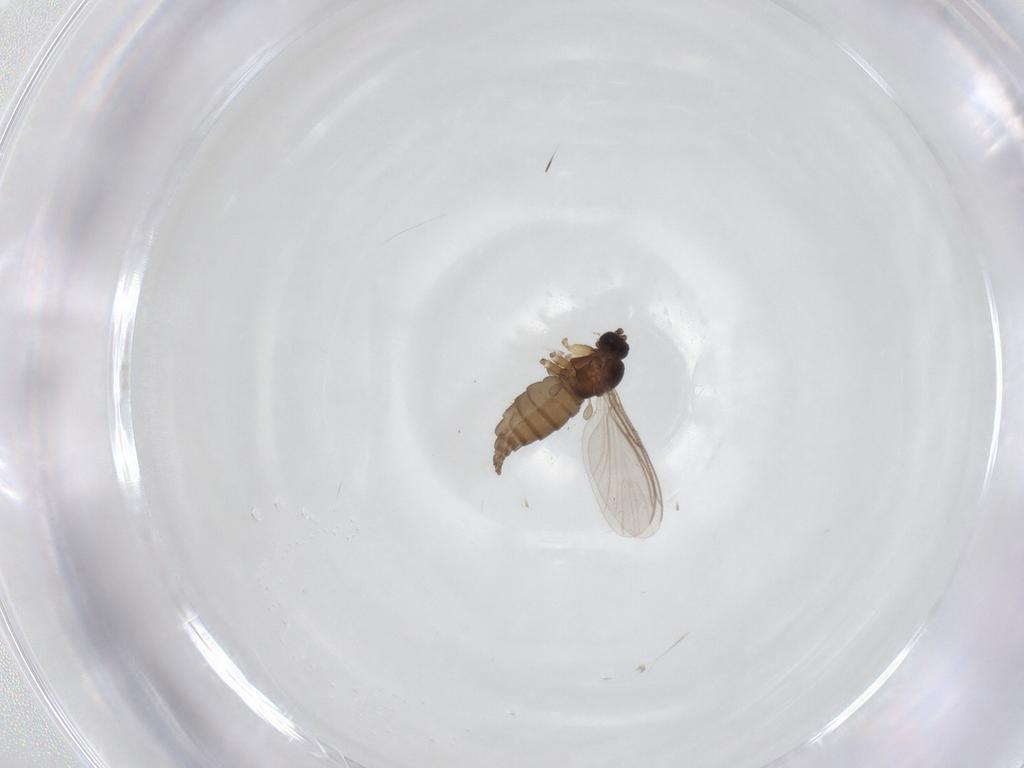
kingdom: Animalia
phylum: Arthropoda
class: Insecta
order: Diptera
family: Sciaridae
